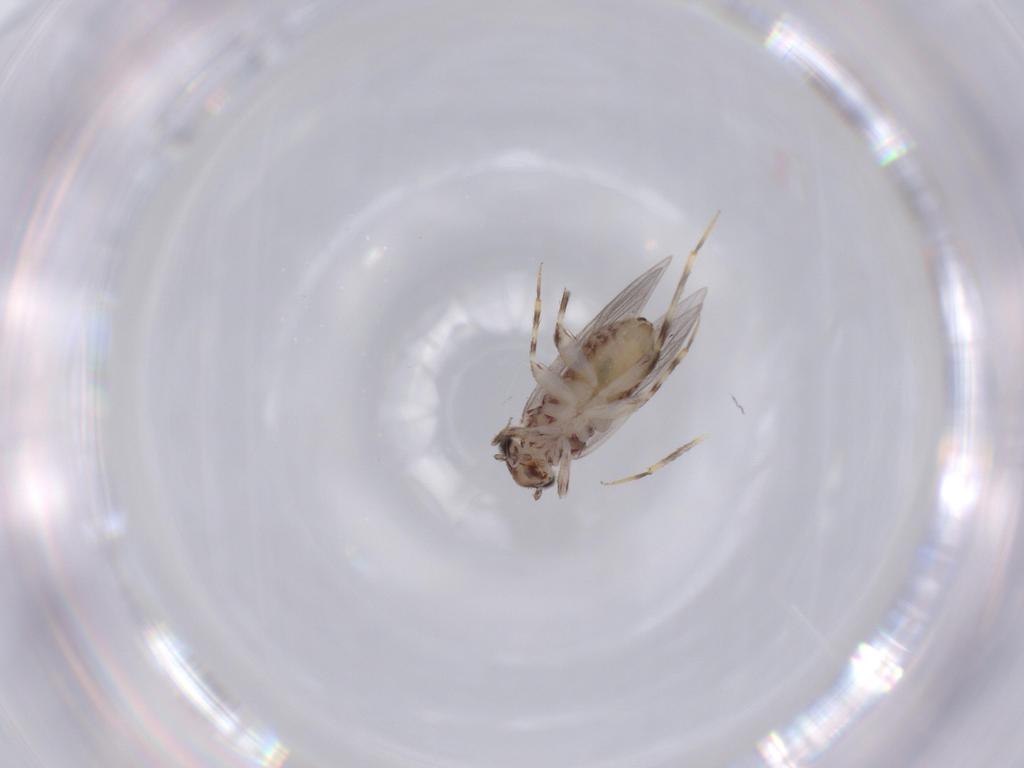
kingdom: Animalia
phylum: Arthropoda
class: Insecta
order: Psocodea
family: Lepidopsocidae
